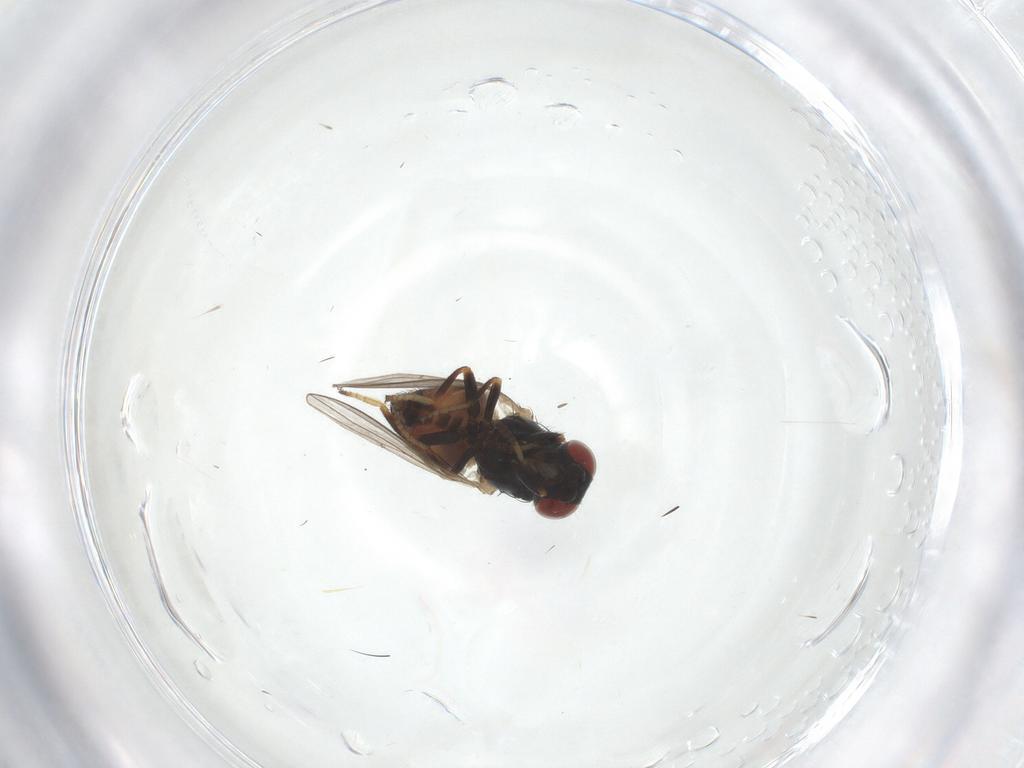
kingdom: Animalia
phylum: Arthropoda
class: Insecta
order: Diptera
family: Chamaemyiidae
